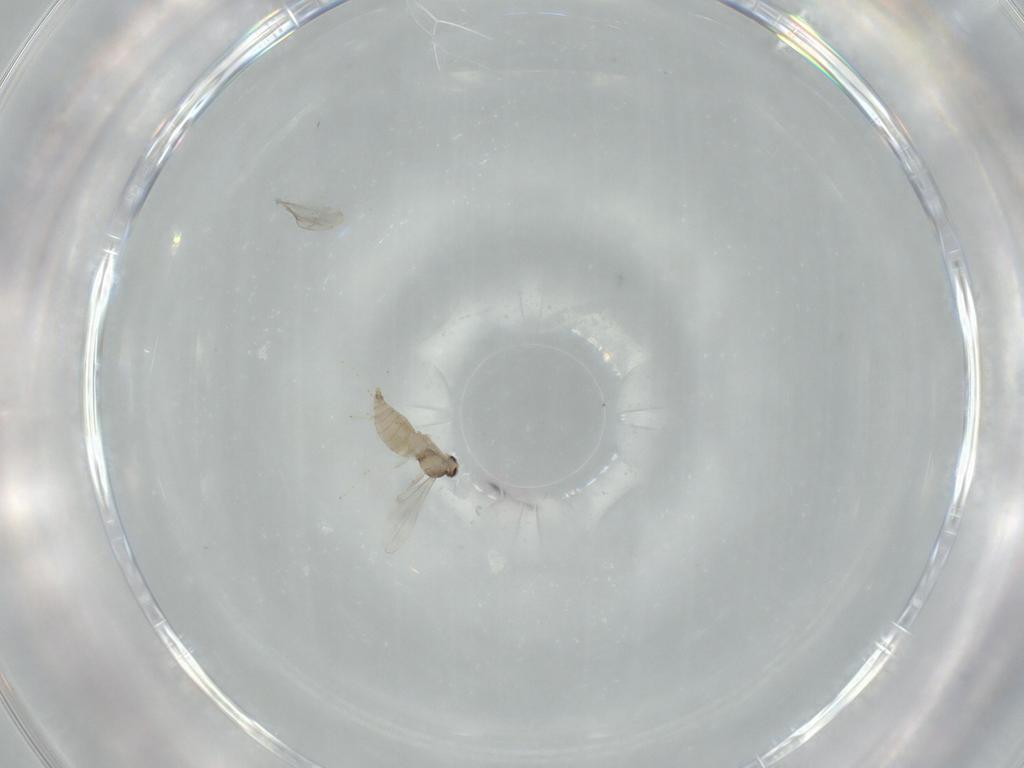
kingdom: Animalia
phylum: Arthropoda
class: Insecta
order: Diptera
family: Cecidomyiidae
